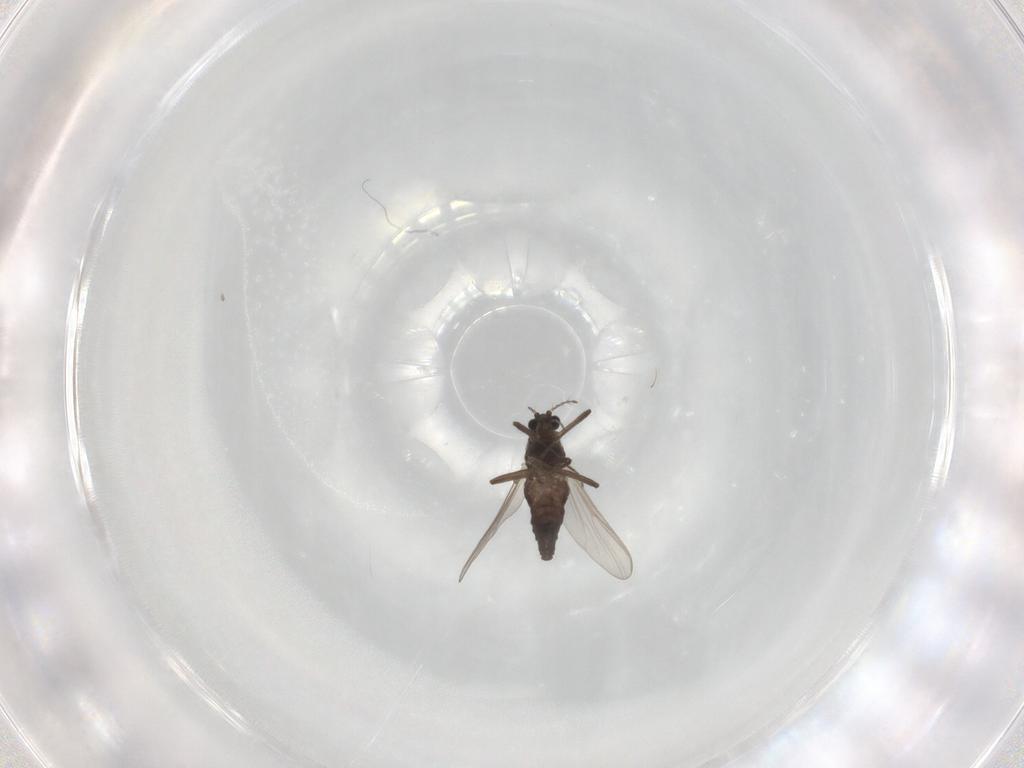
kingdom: Animalia
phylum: Arthropoda
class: Insecta
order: Diptera
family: Chironomidae
